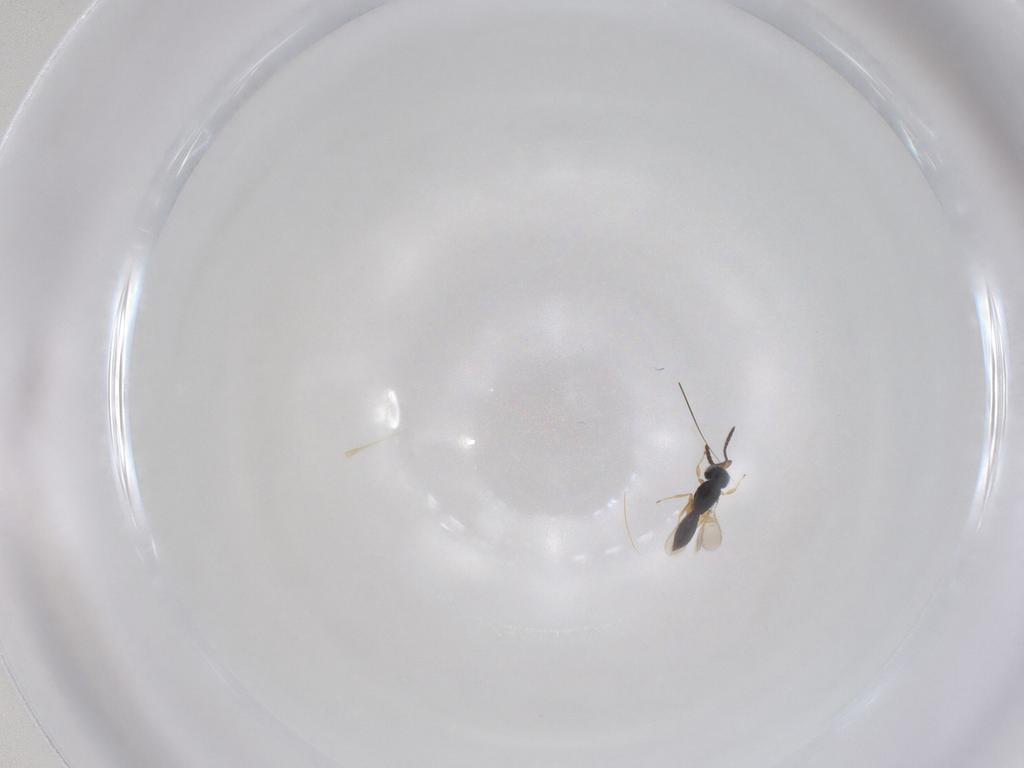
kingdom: Animalia
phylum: Arthropoda
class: Insecta
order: Hymenoptera
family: Scelionidae
